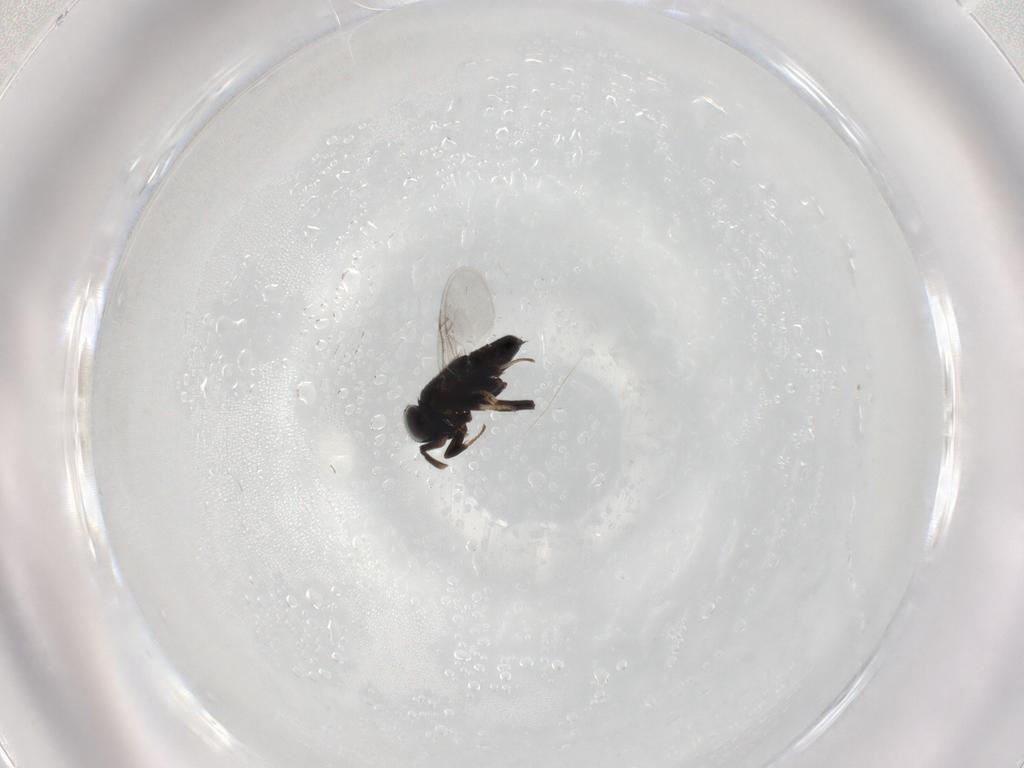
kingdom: Animalia
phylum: Arthropoda
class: Insecta
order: Hymenoptera
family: Encyrtidae
